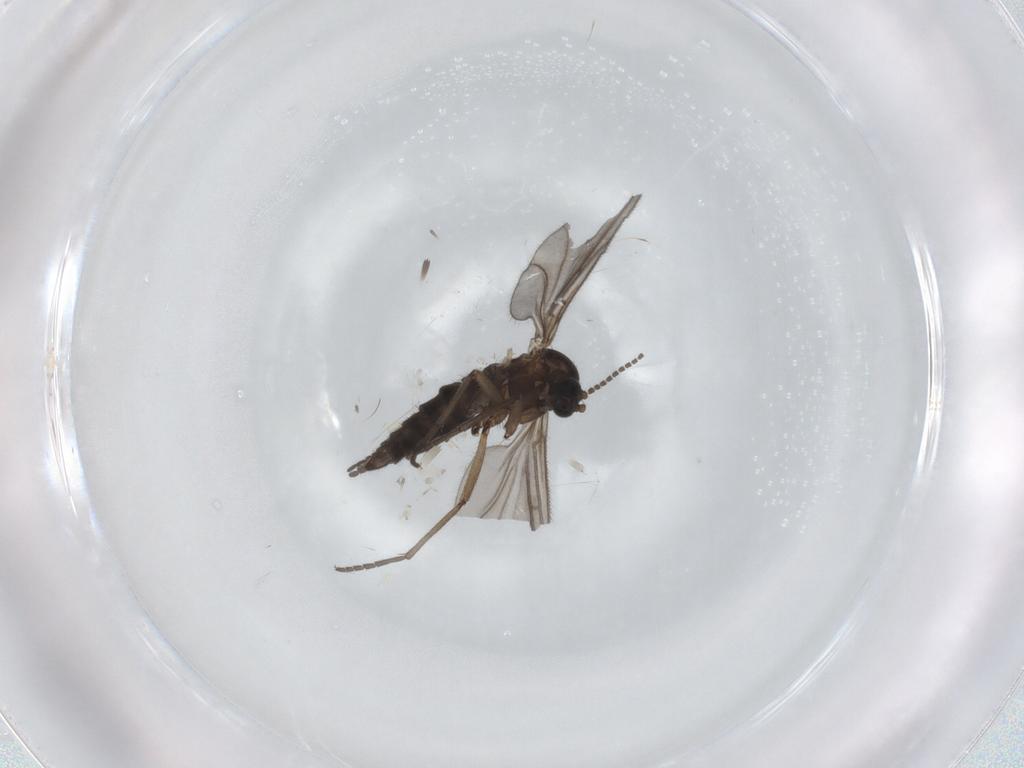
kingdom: Animalia
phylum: Arthropoda
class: Insecta
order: Diptera
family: Sciaridae
